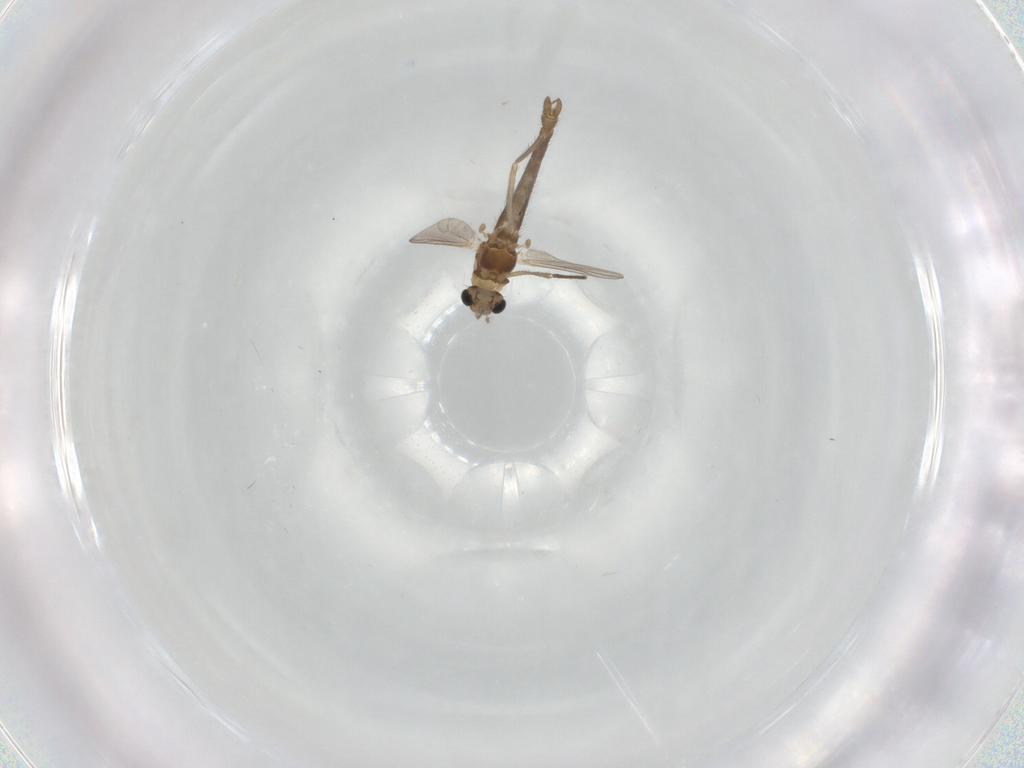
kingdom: Animalia
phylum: Arthropoda
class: Insecta
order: Diptera
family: Chironomidae
